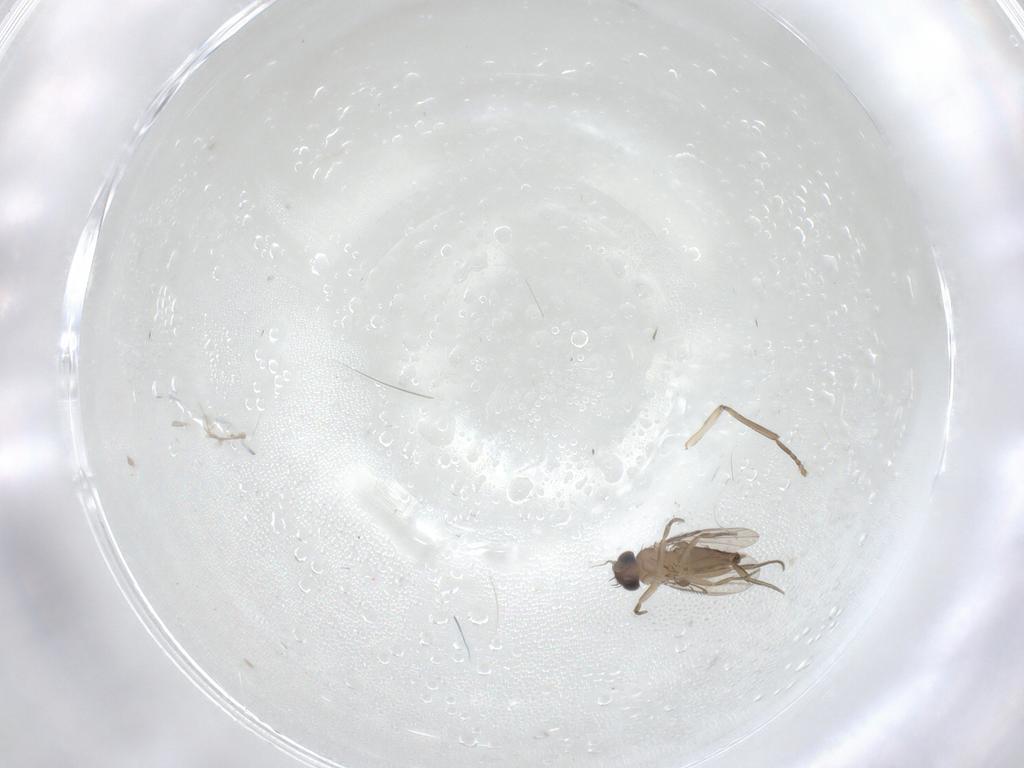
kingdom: Animalia
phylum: Arthropoda
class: Insecta
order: Diptera
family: Phoridae
